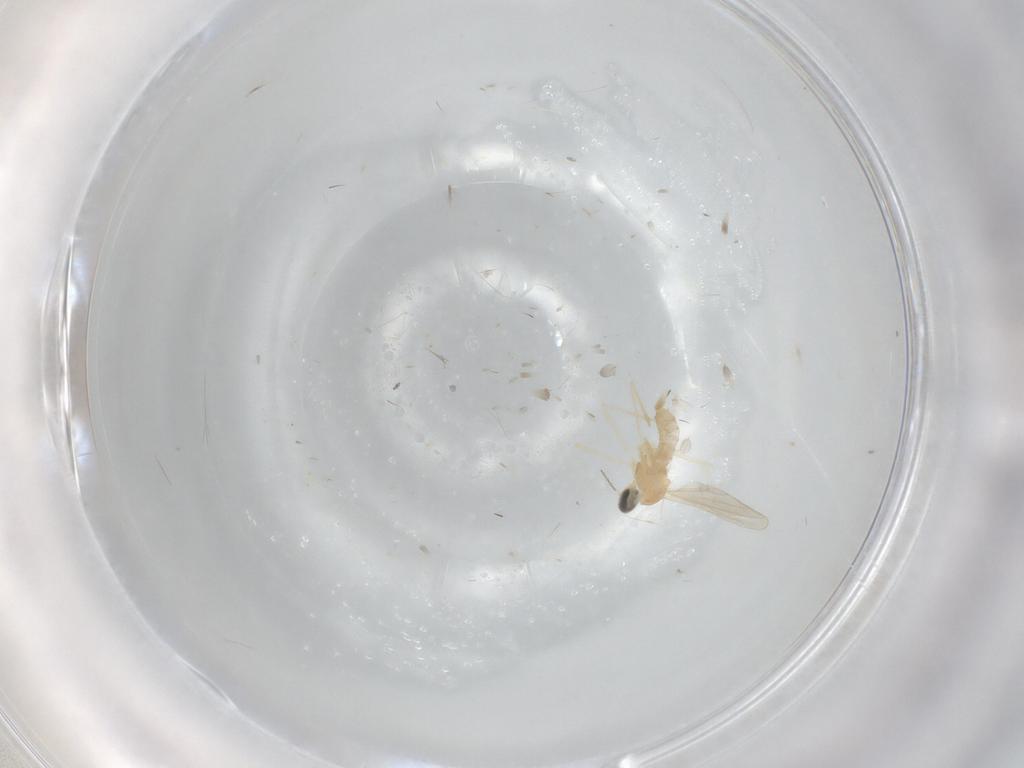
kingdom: Animalia
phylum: Arthropoda
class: Insecta
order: Diptera
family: Cecidomyiidae
